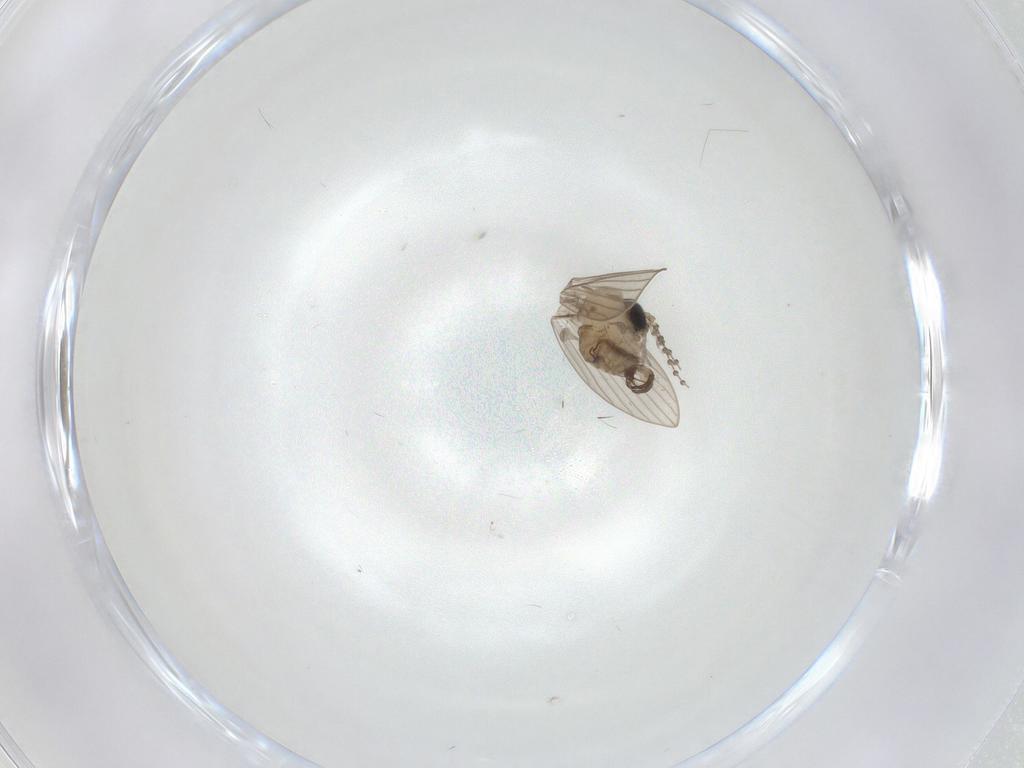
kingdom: Animalia
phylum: Arthropoda
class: Insecta
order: Diptera
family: Psychodidae
